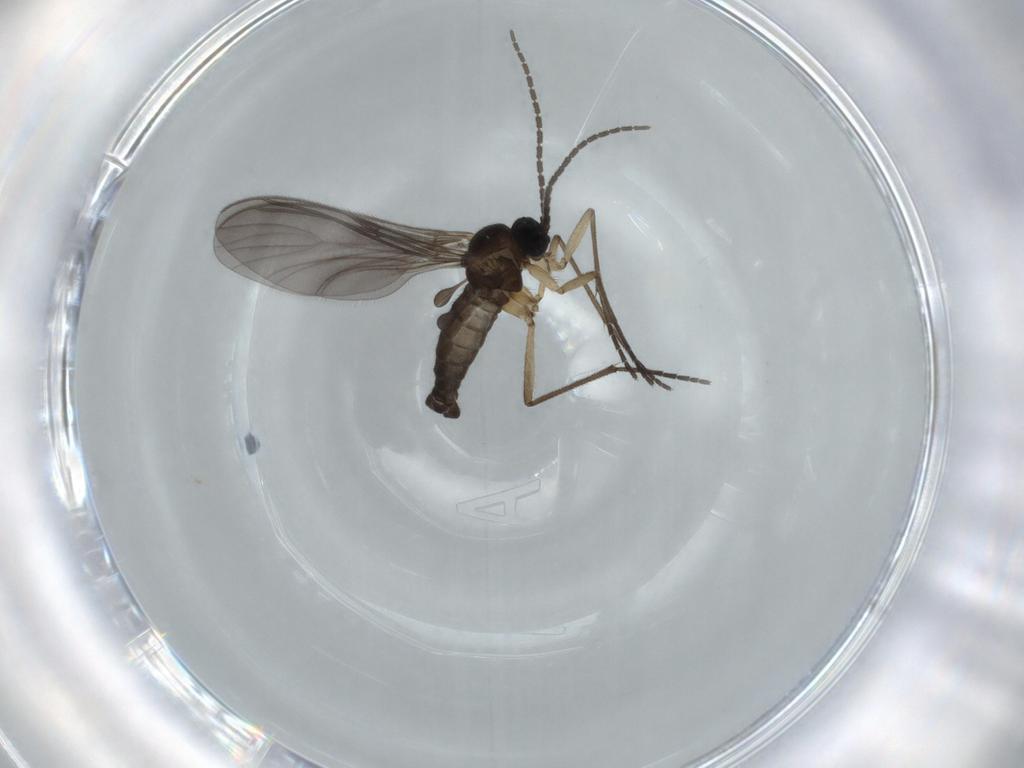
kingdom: Animalia
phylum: Arthropoda
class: Insecta
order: Diptera
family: Sciaridae
